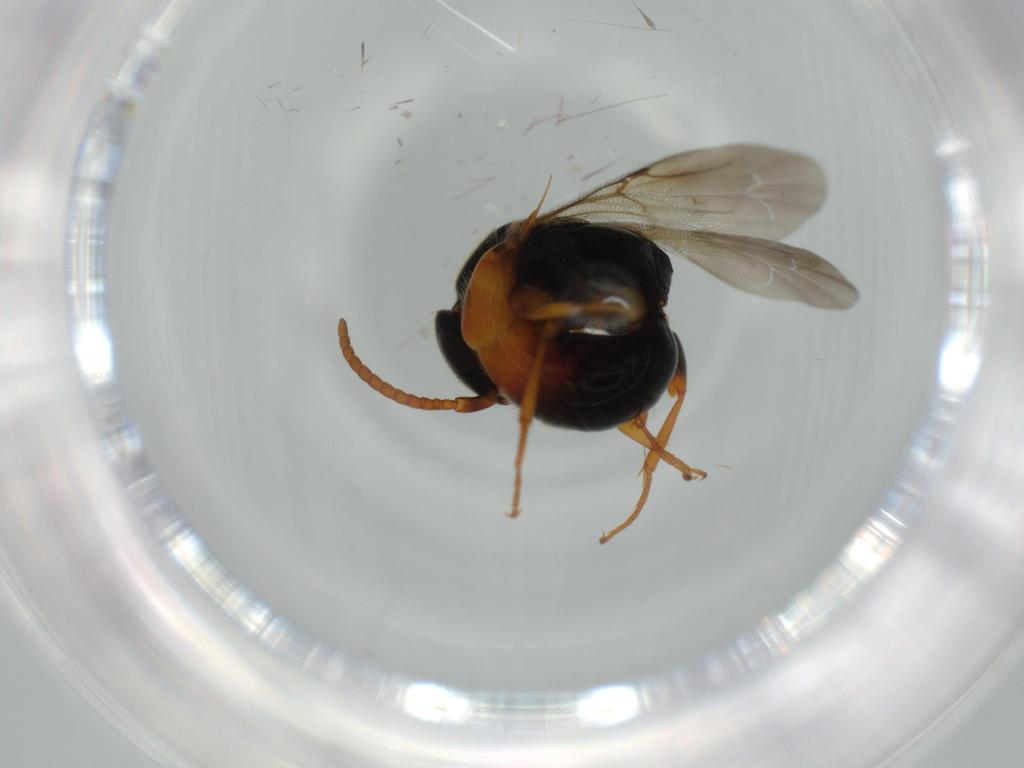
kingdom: Animalia
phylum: Arthropoda
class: Insecta
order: Hymenoptera
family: Bethylidae
